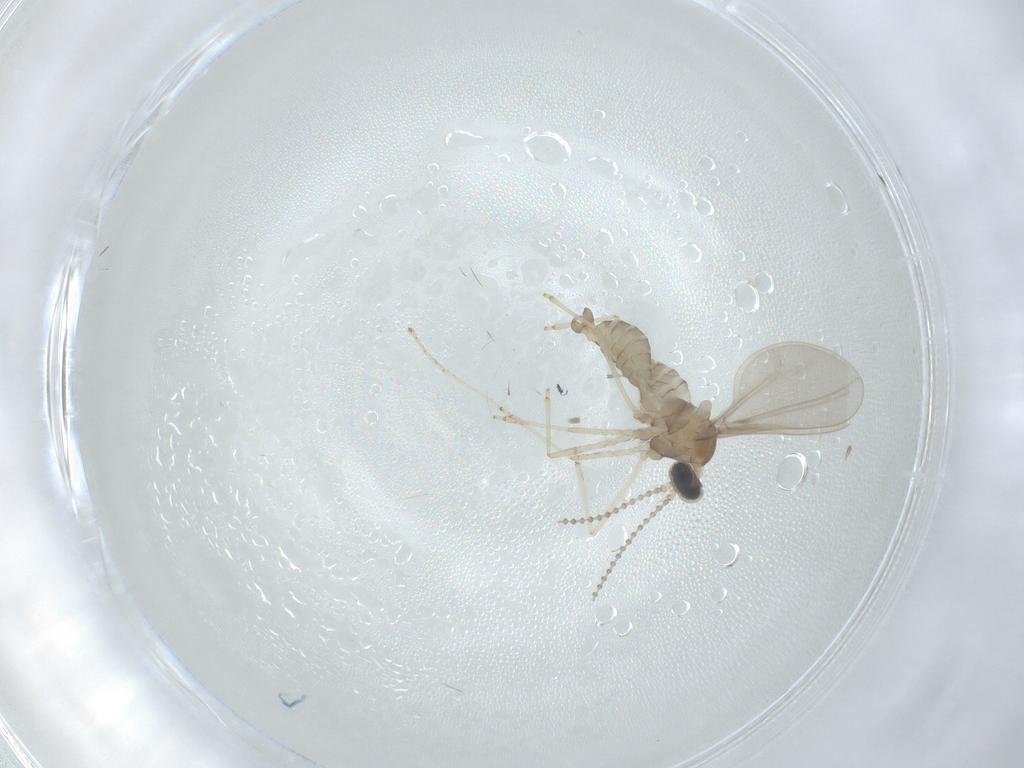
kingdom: Animalia
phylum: Arthropoda
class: Insecta
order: Diptera
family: Cecidomyiidae
